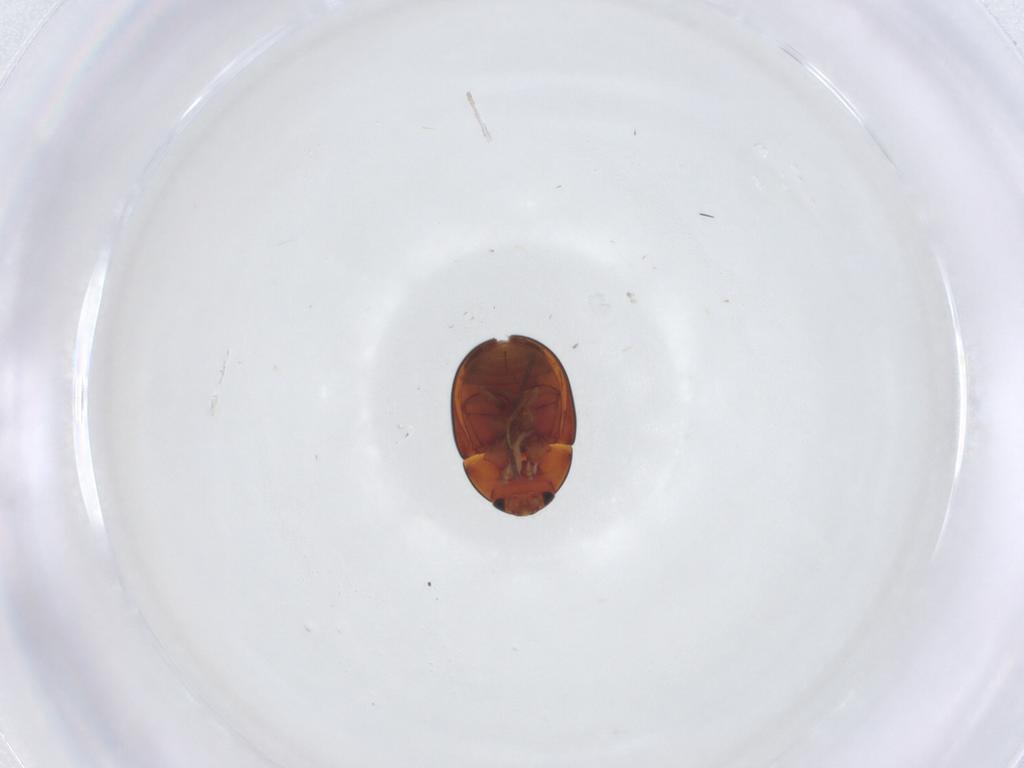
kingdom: Animalia
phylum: Arthropoda
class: Insecta
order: Coleoptera
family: Phalacridae
